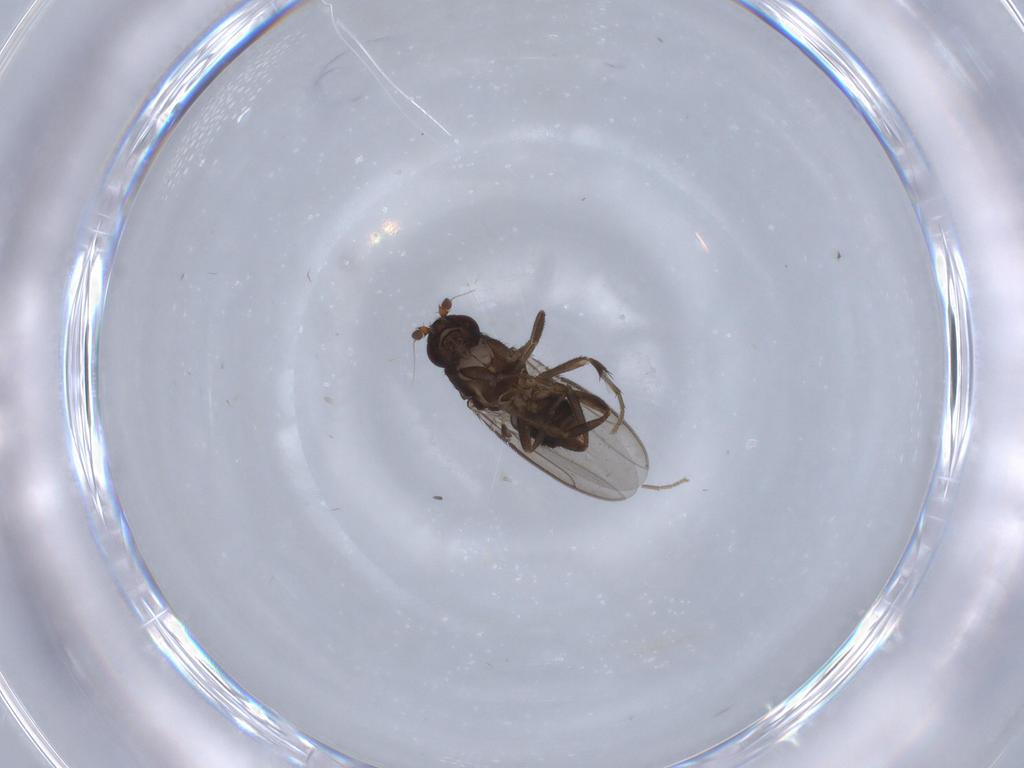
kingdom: Animalia
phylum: Arthropoda
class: Insecta
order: Diptera
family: Sphaeroceridae
